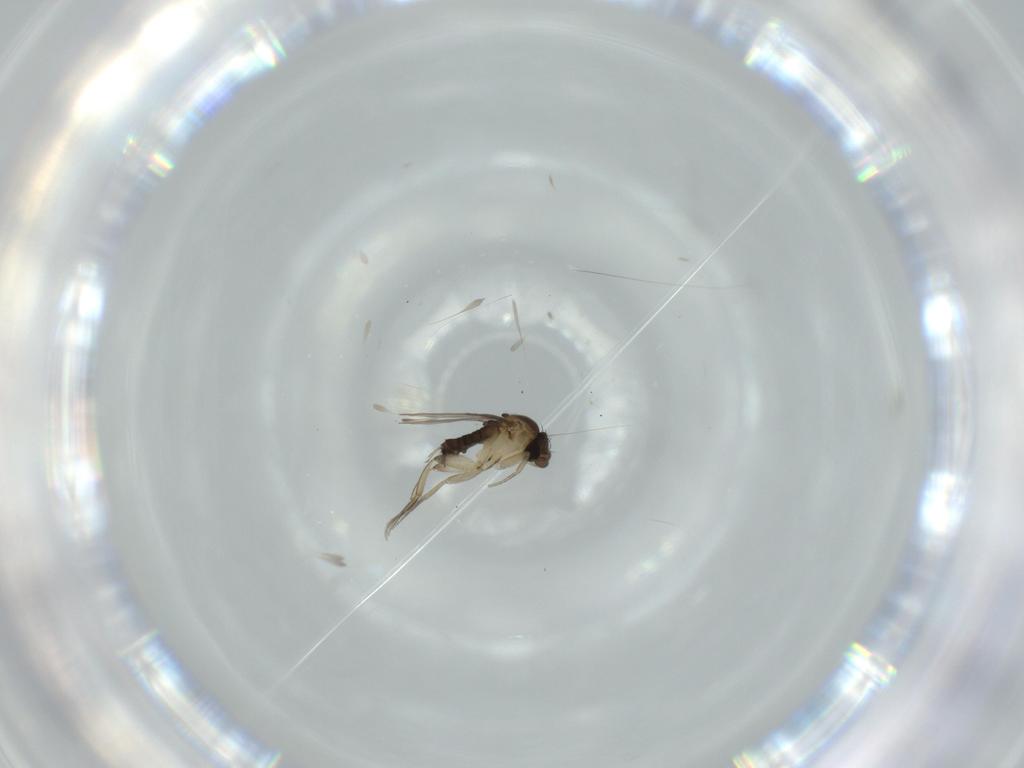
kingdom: Animalia
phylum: Arthropoda
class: Insecta
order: Diptera
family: Phoridae
